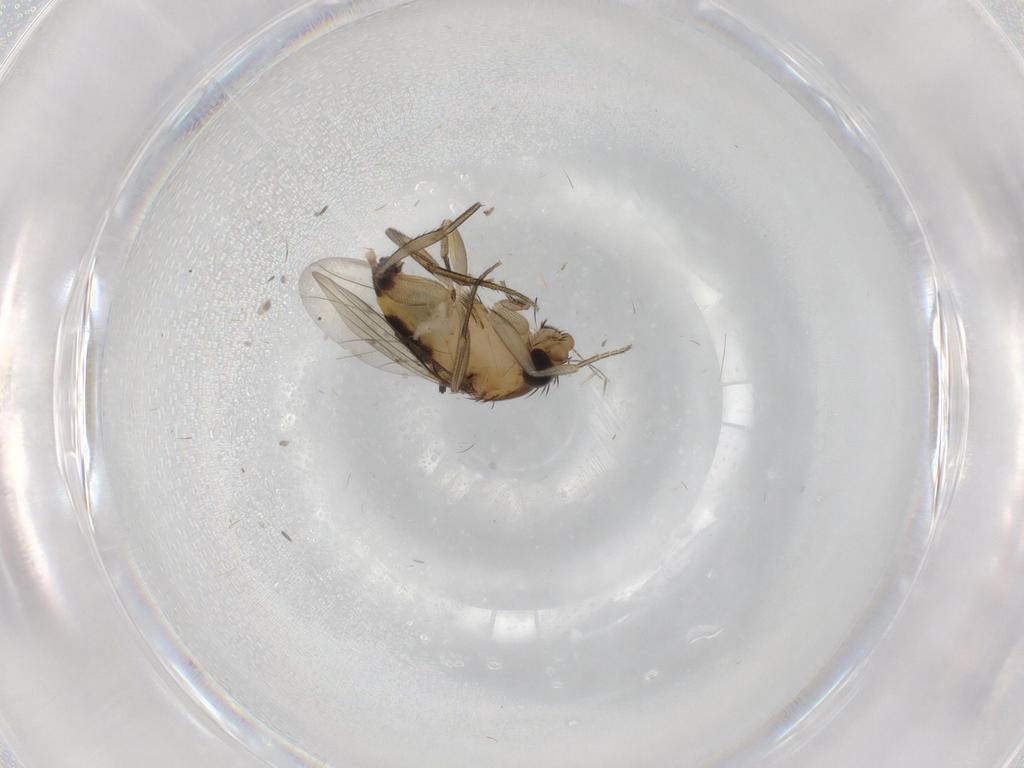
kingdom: Animalia
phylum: Arthropoda
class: Insecta
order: Diptera
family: Phoridae
